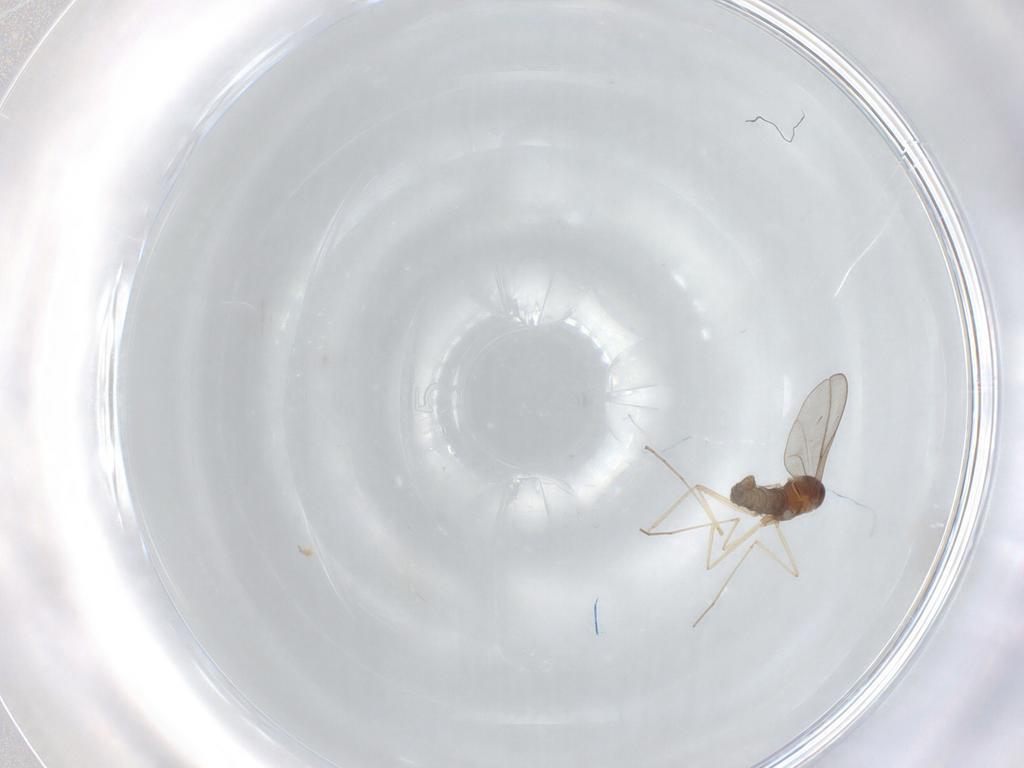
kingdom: Animalia
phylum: Arthropoda
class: Insecta
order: Diptera
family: Cecidomyiidae
